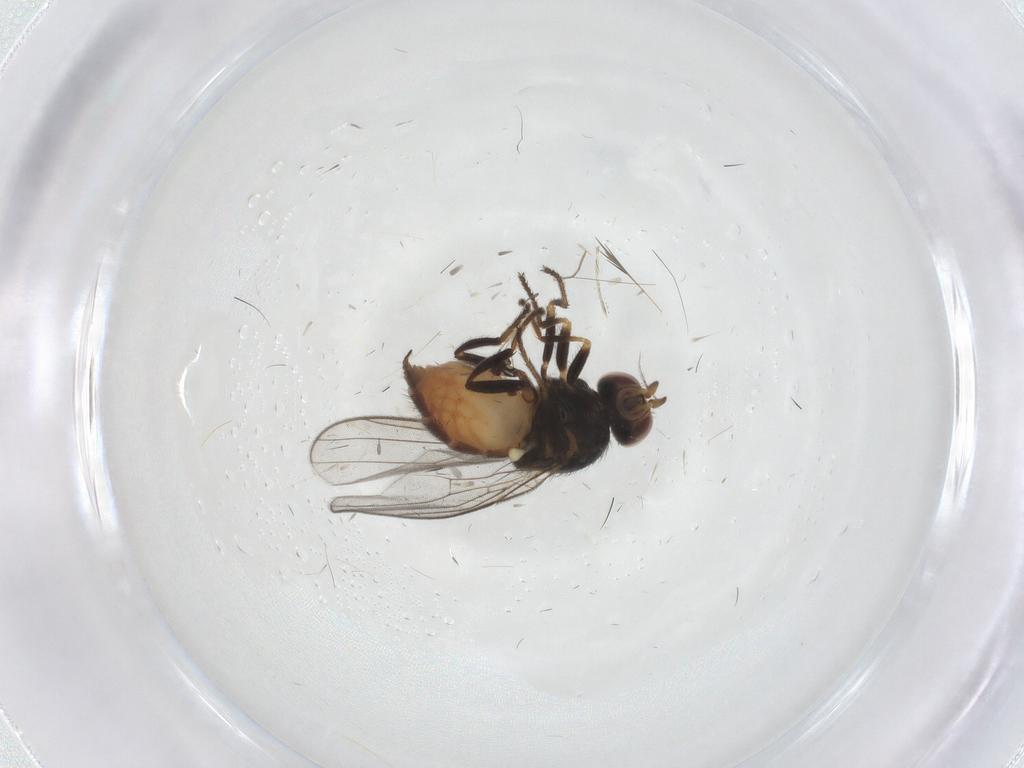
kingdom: Animalia
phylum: Arthropoda
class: Insecta
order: Diptera
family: Chloropidae
